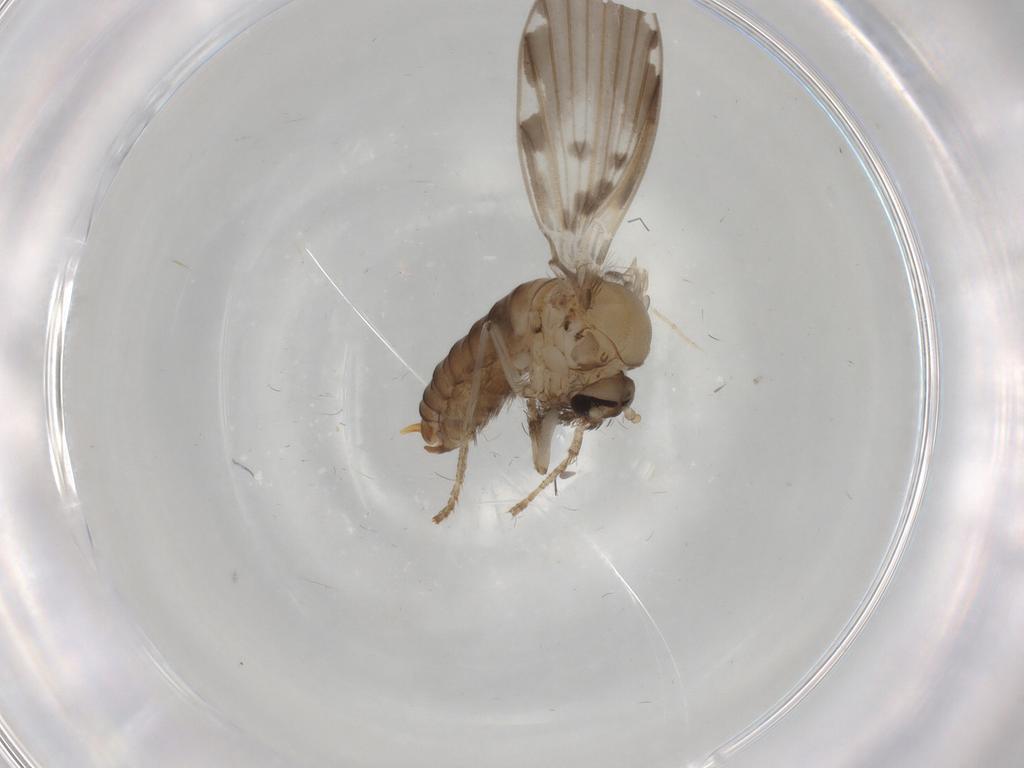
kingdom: Animalia
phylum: Arthropoda
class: Insecta
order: Diptera
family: Psychodidae
